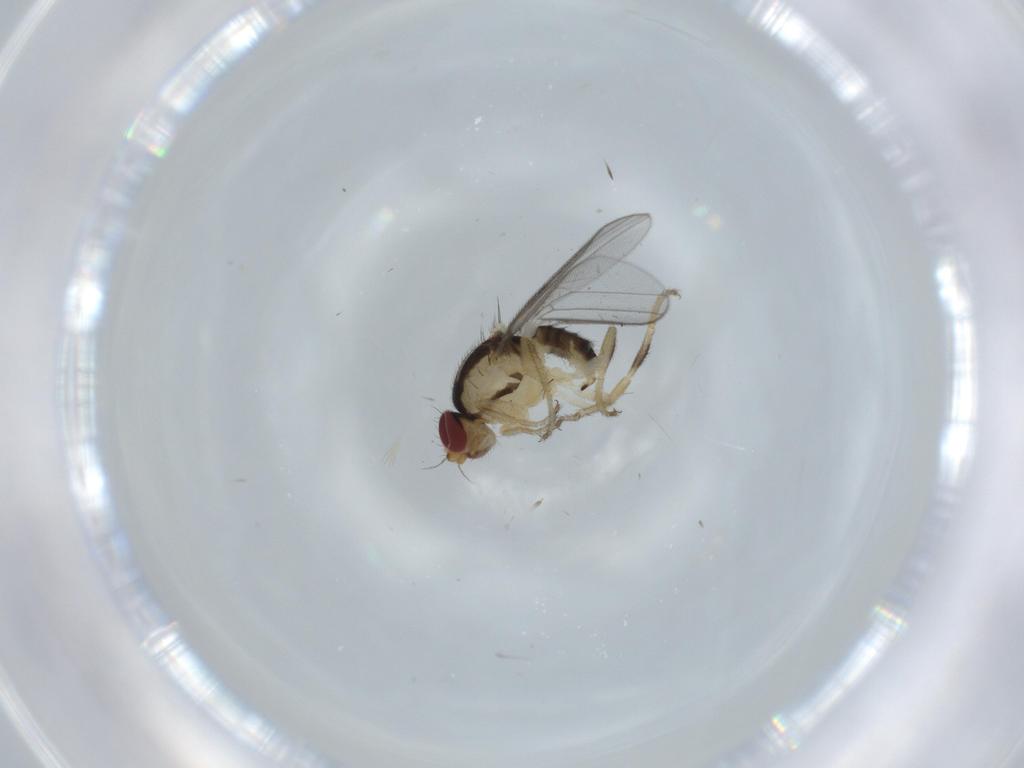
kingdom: Animalia
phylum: Arthropoda
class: Insecta
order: Diptera
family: Chloropidae
